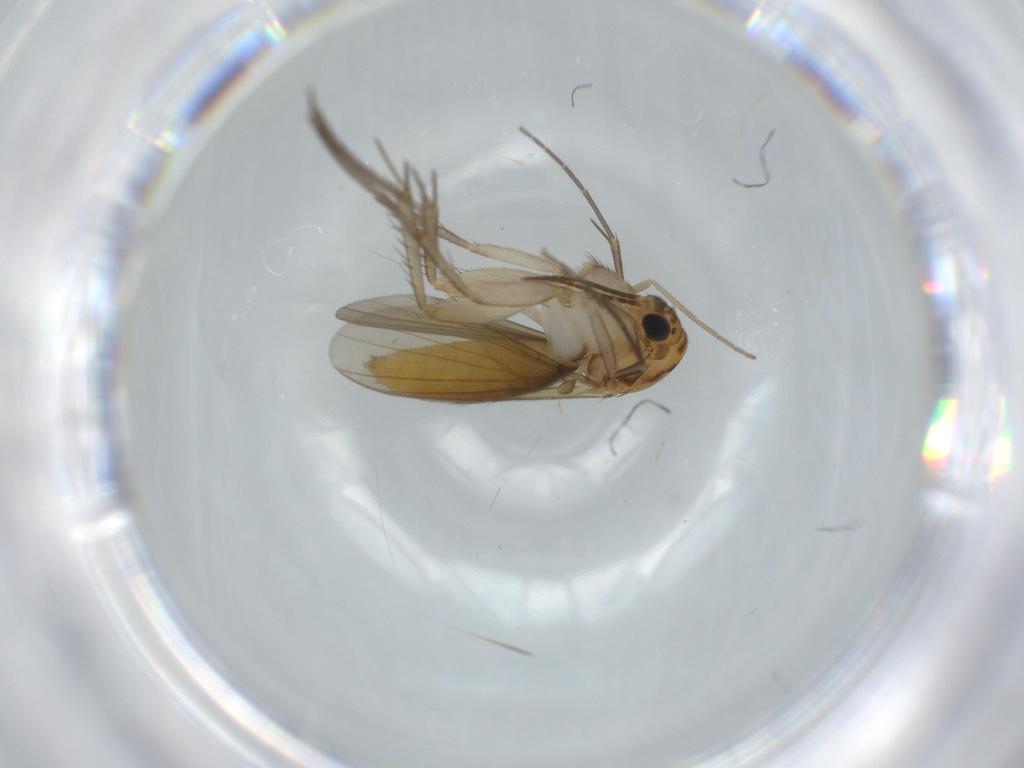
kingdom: Animalia
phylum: Arthropoda
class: Insecta
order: Diptera
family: Mycetophilidae
